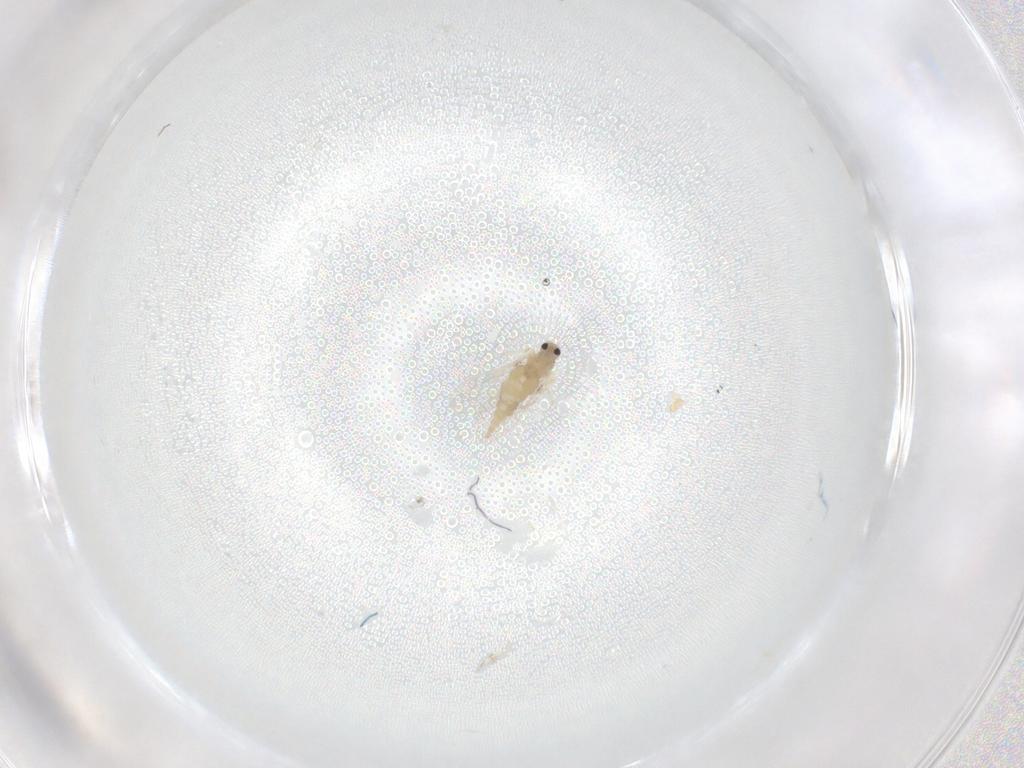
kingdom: Animalia
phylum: Arthropoda
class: Insecta
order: Diptera
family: Cecidomyiidae
